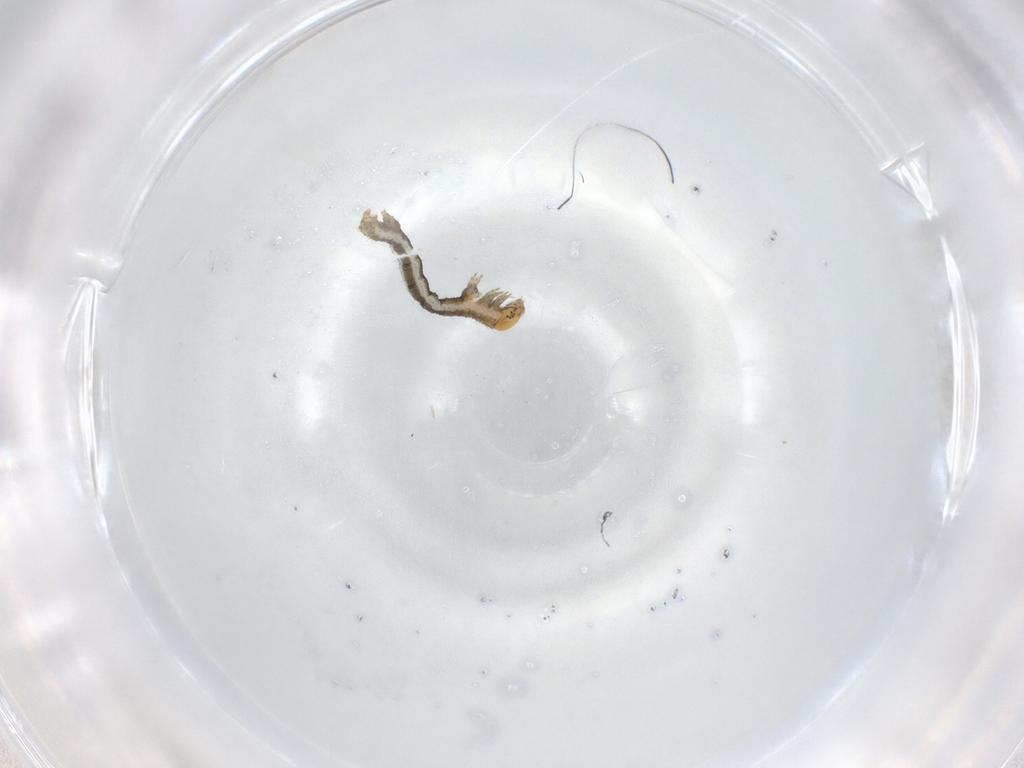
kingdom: Animalia
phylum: Arthropoda
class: Insecta
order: Lepidoptera
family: Geometridae
